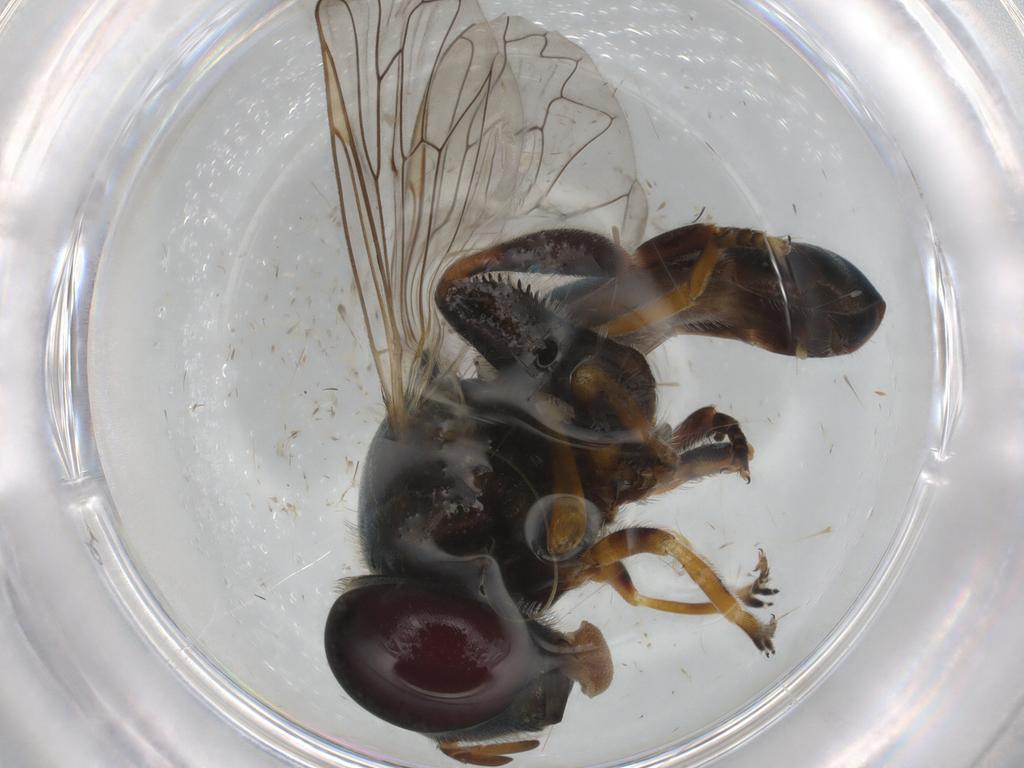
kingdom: Animalia
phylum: Arthropoda
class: Insecta
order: Diptera
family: Syrphidae
